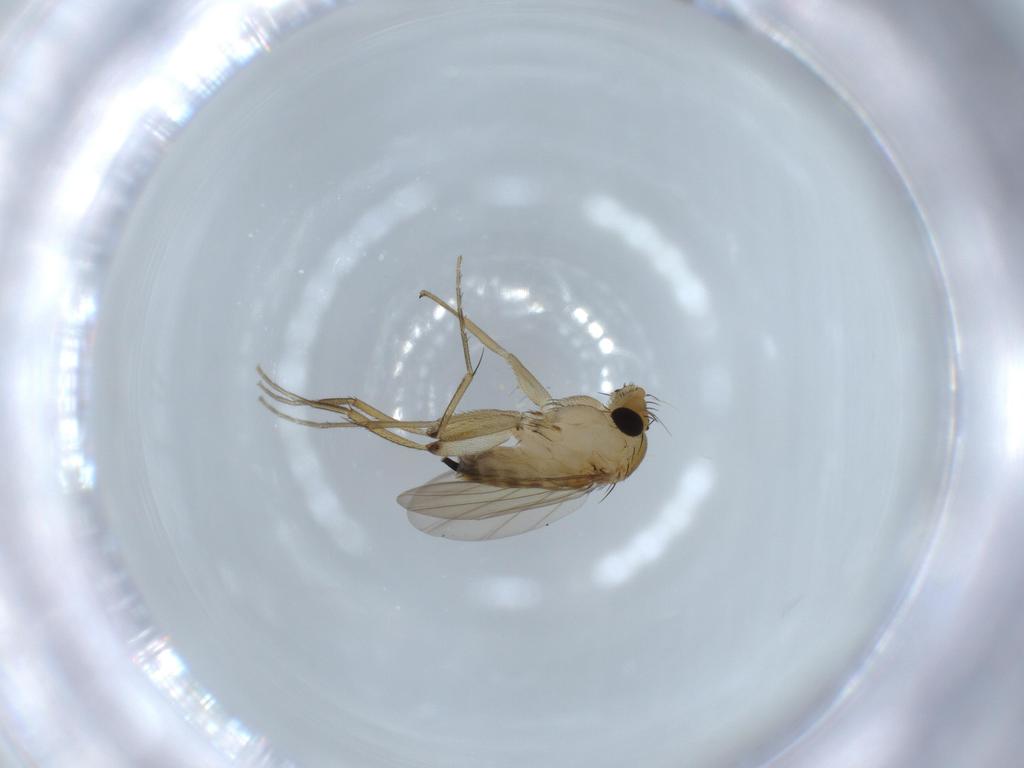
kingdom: Animalia
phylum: Arthropoda
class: Insecta
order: Diptera
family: Phoridae
